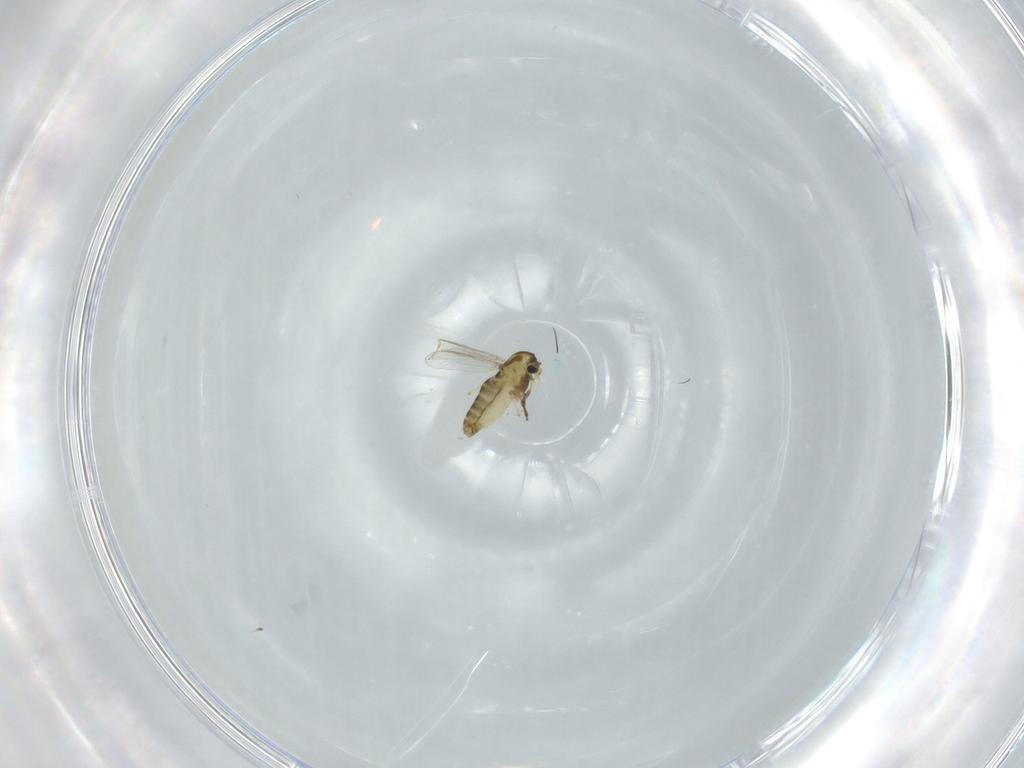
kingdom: Animalia
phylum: Arthropoda
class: Insecta
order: Diptera
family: Chironomidae
